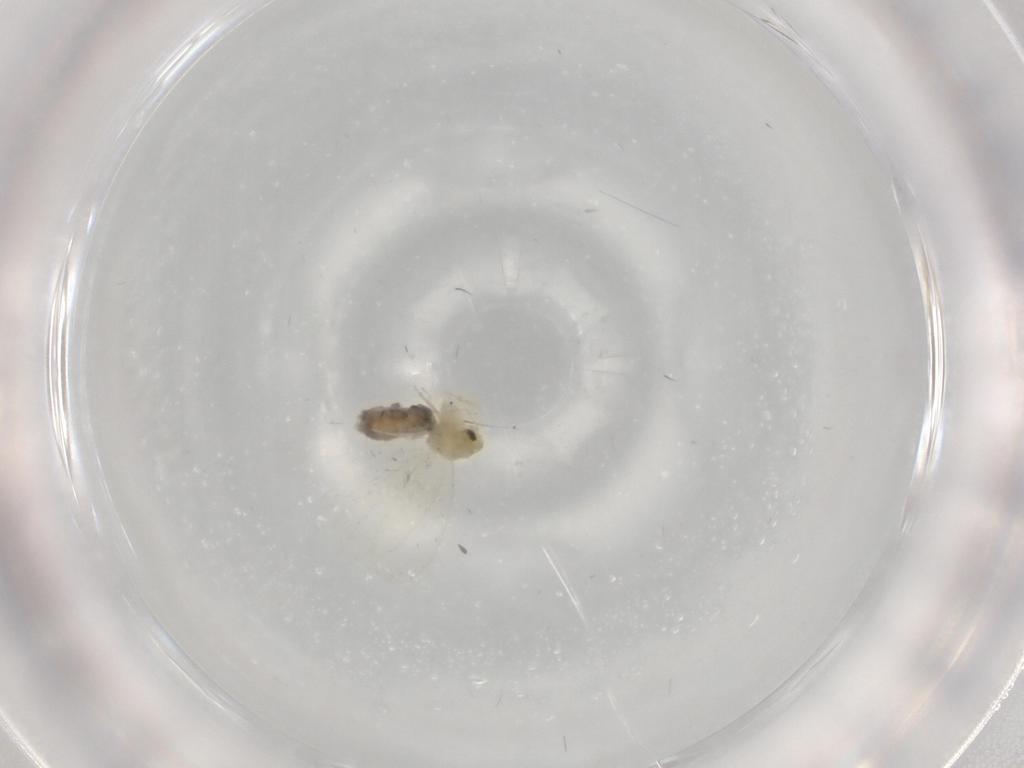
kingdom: Animalia
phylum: Arthropoda
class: Insecta
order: Hemiptera
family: Aleyrodidae
